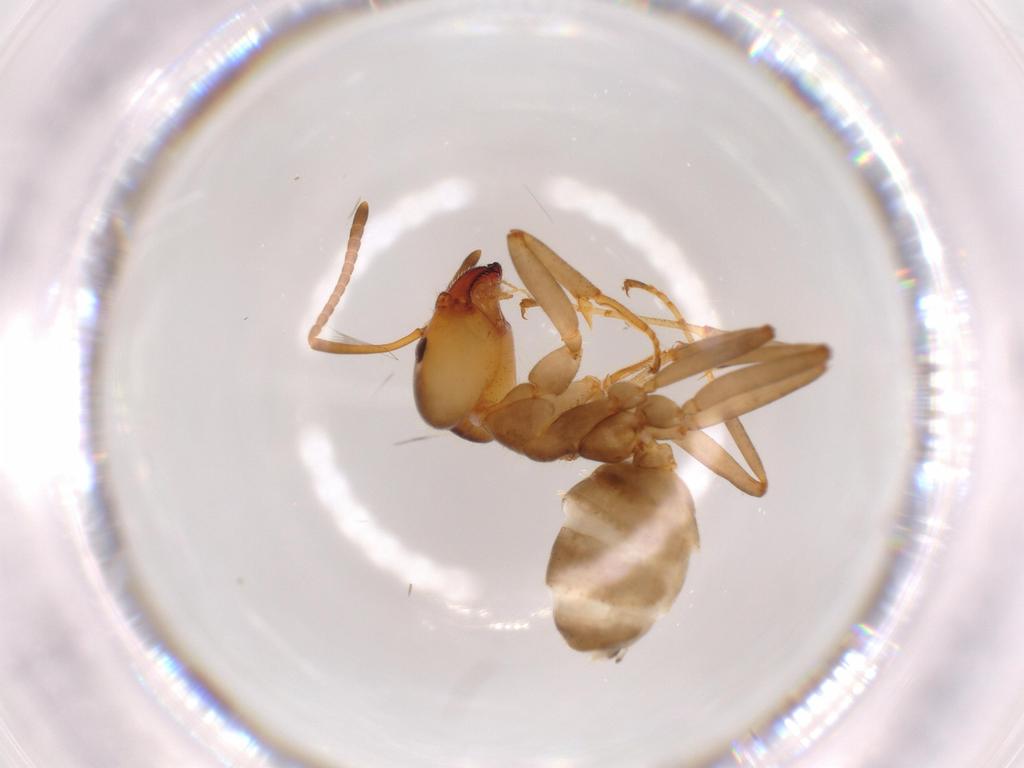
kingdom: Animalia
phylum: Arthropoda
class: Insecta
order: Hymenoptera
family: Formicidae
